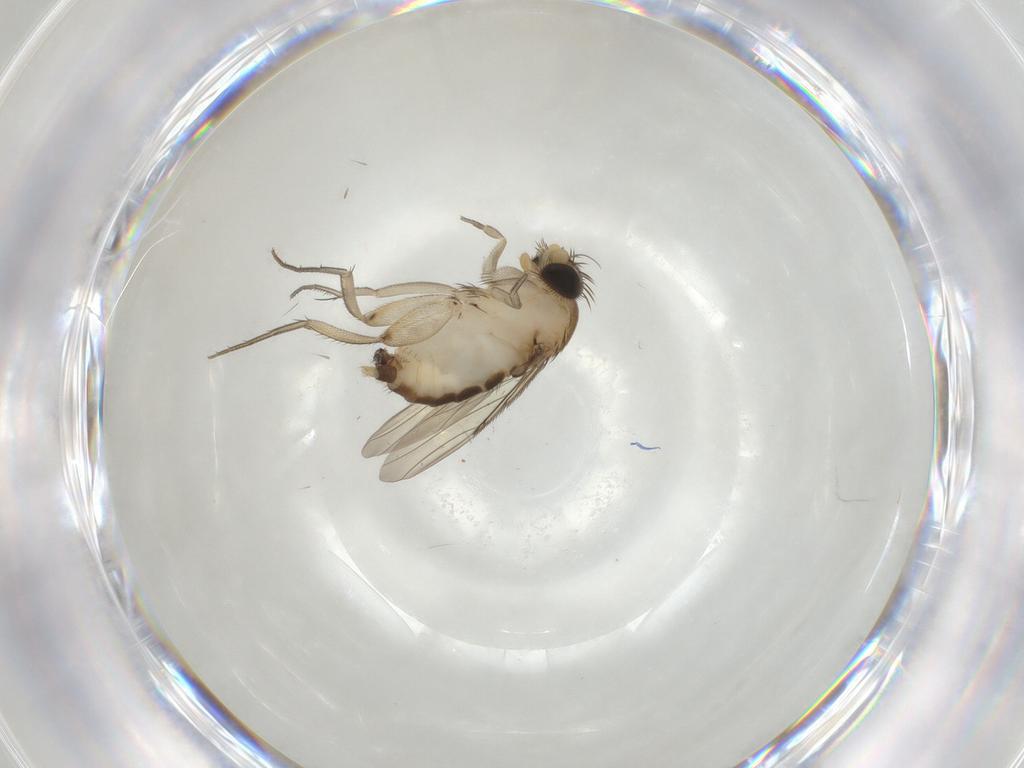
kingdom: Animalia
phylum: Arthropoda
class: Insecta
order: Diptera
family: Phoridae
